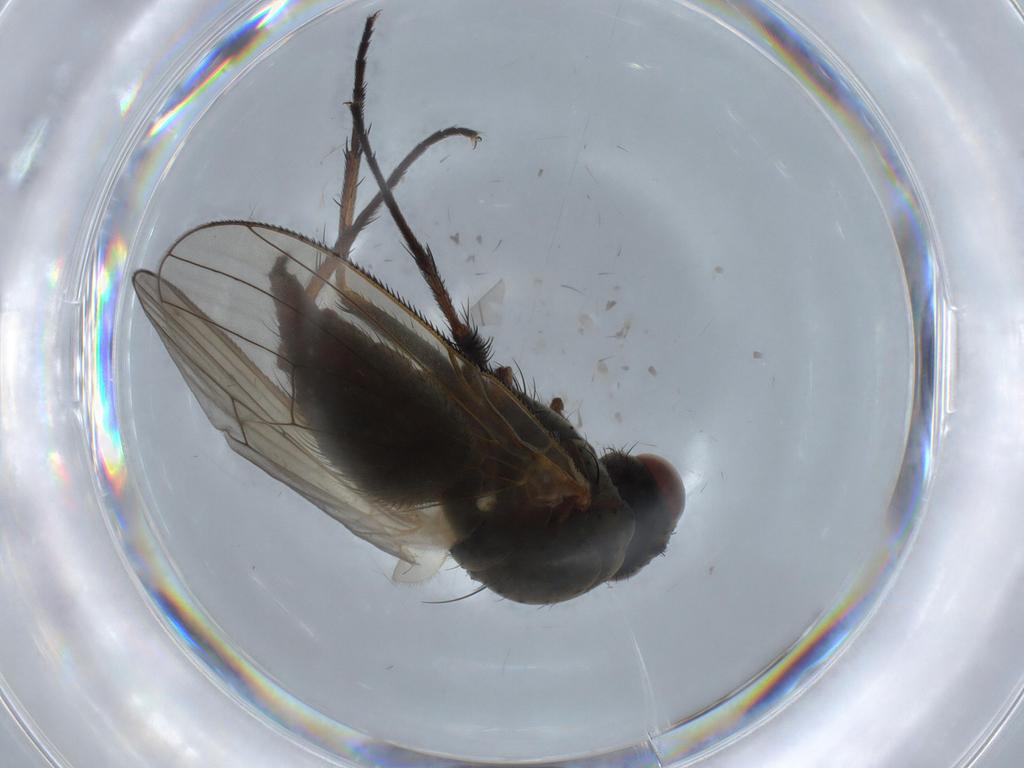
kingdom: Animalia
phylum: Arthropoda
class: Insecta
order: Diptera
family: Anthomyiidae
